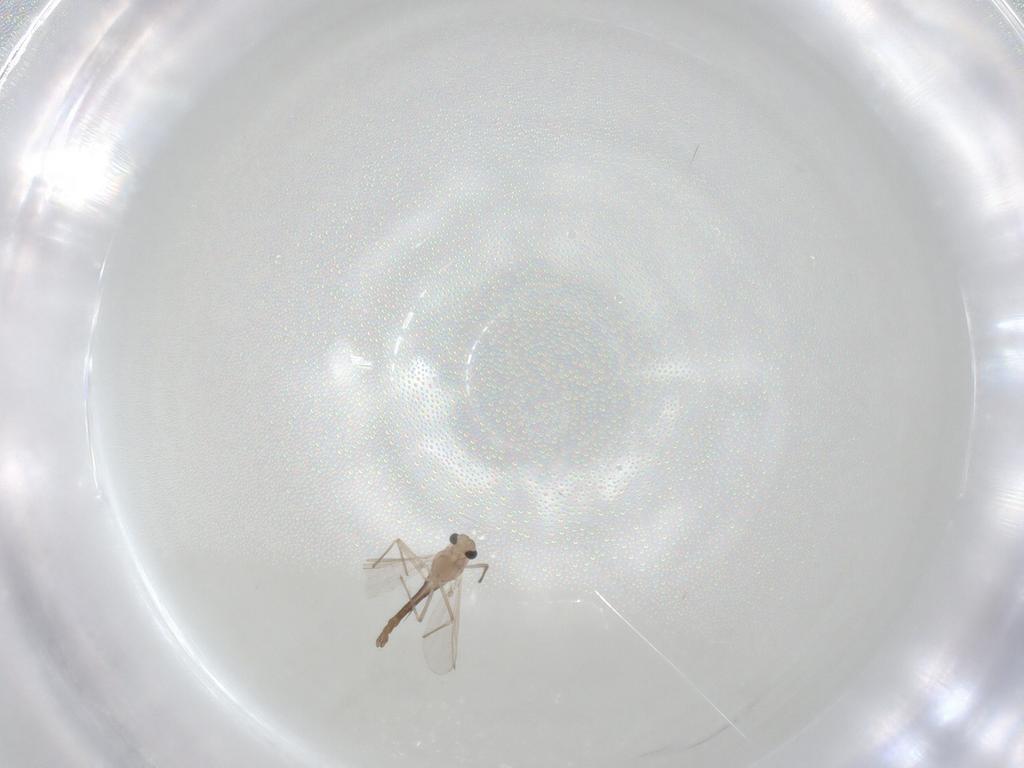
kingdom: Animalia
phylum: Arthropoda
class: Insecta
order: Diptera
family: Chironomidae
